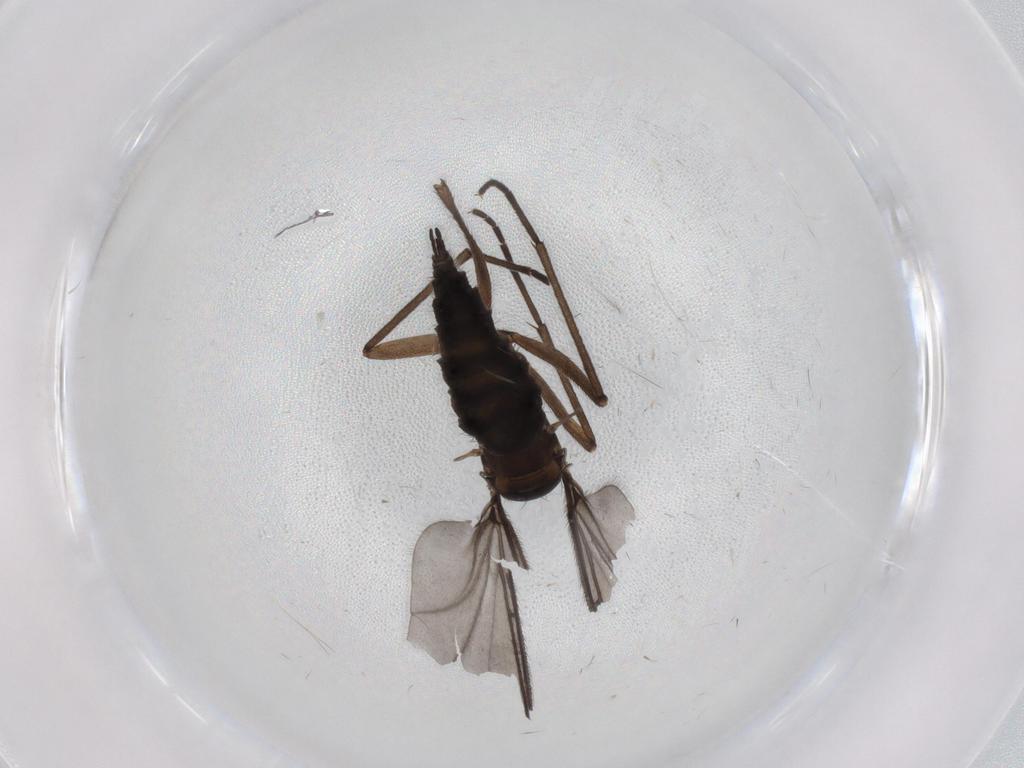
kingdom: Animalia
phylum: Arthropoda
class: Insecta
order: Diptera
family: Sciaridae
